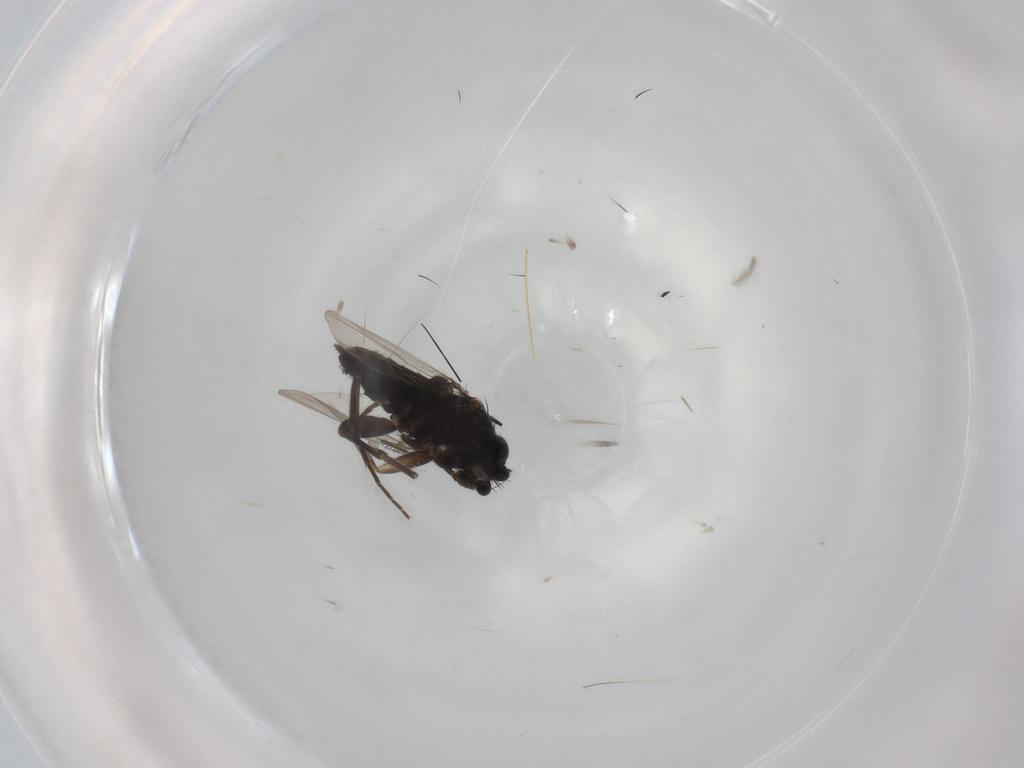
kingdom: Animalia
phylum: Arthropoda
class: Insecta
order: Diptera
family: Phoridae
